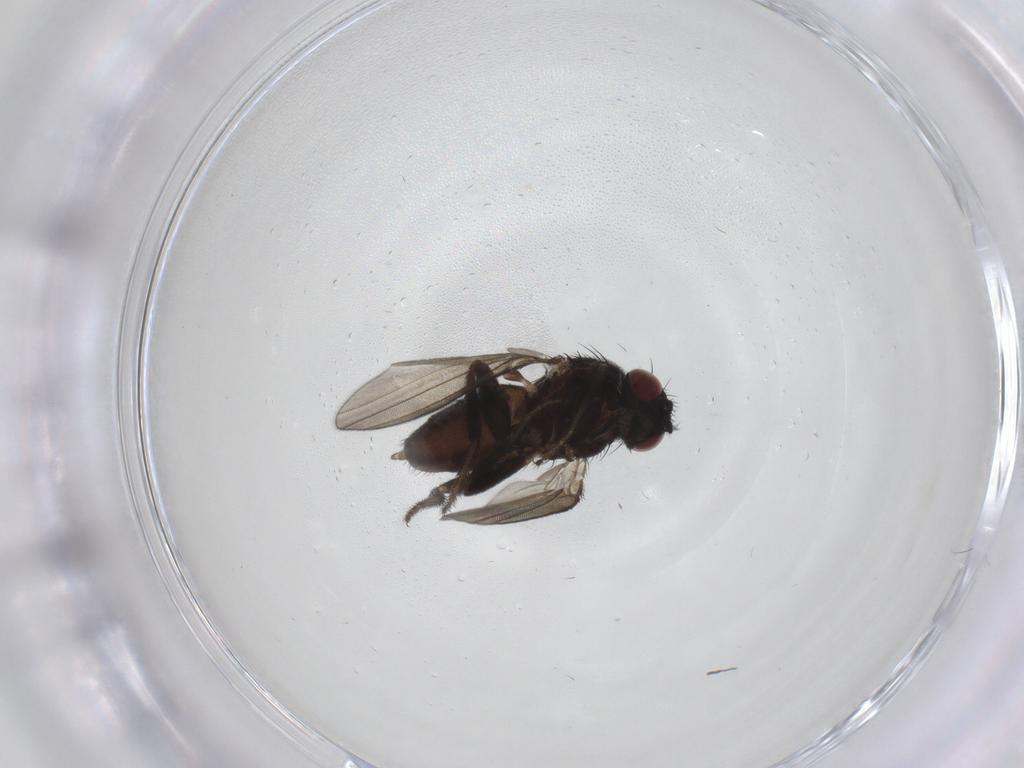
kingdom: Animalia
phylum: Arthropoda
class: Insecta
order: Diptera
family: Milichiidae
